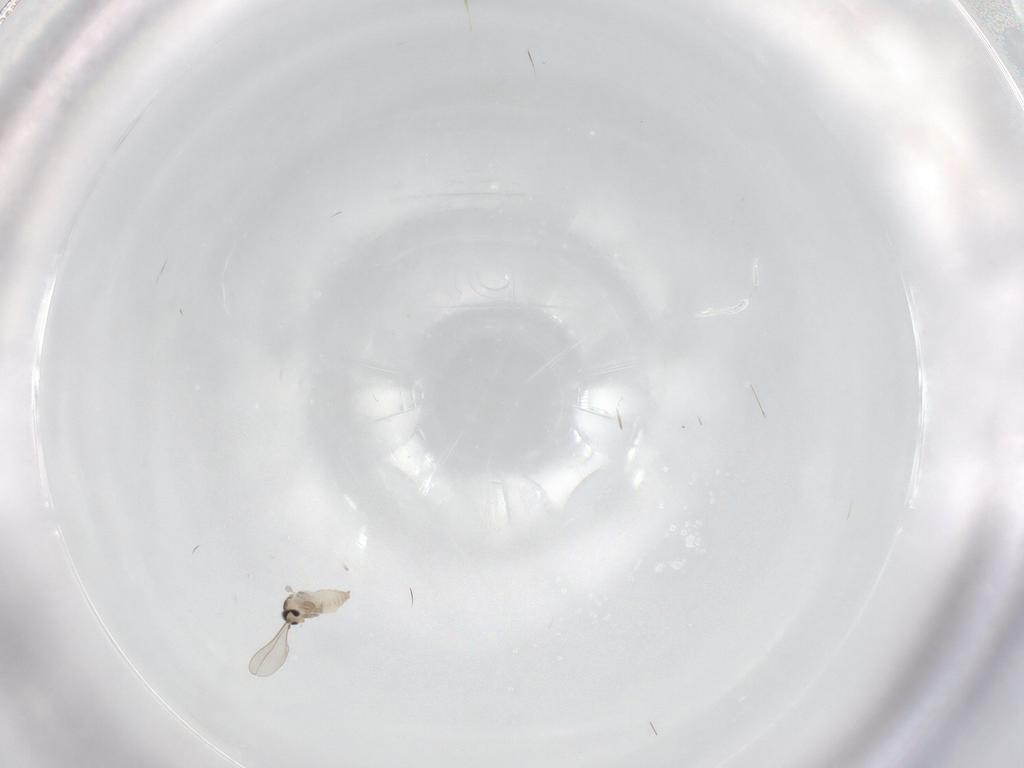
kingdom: Animalia
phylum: Arthropoda
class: Insecta
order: Diptera
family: Cecidomyiidae
